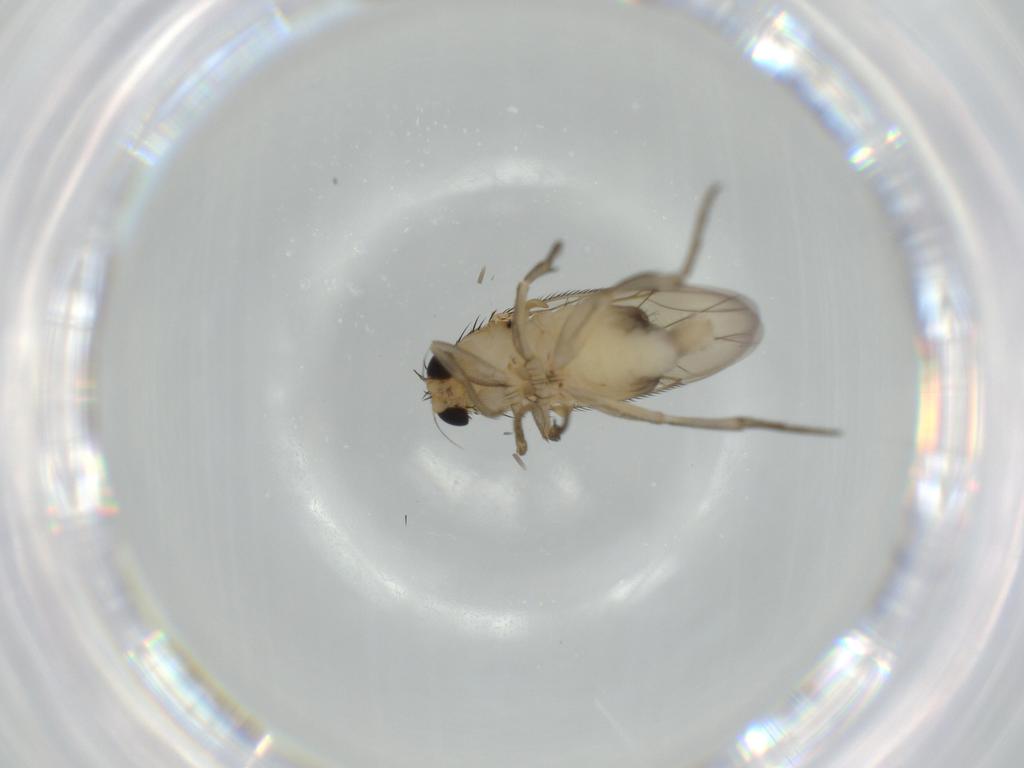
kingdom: Animalia
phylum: Arthropoda
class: Insecta
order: Diptera
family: Phoridae
